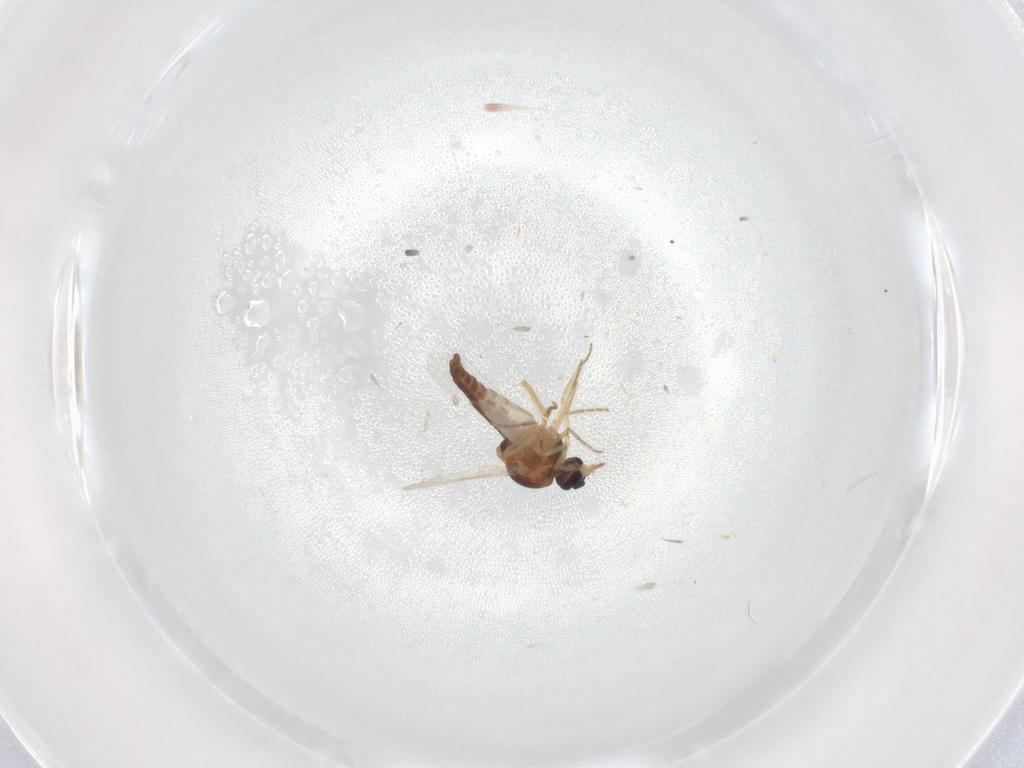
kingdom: Animalia
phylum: Arthropoda
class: Insecta
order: Diptera
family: Ceratopogonidae
